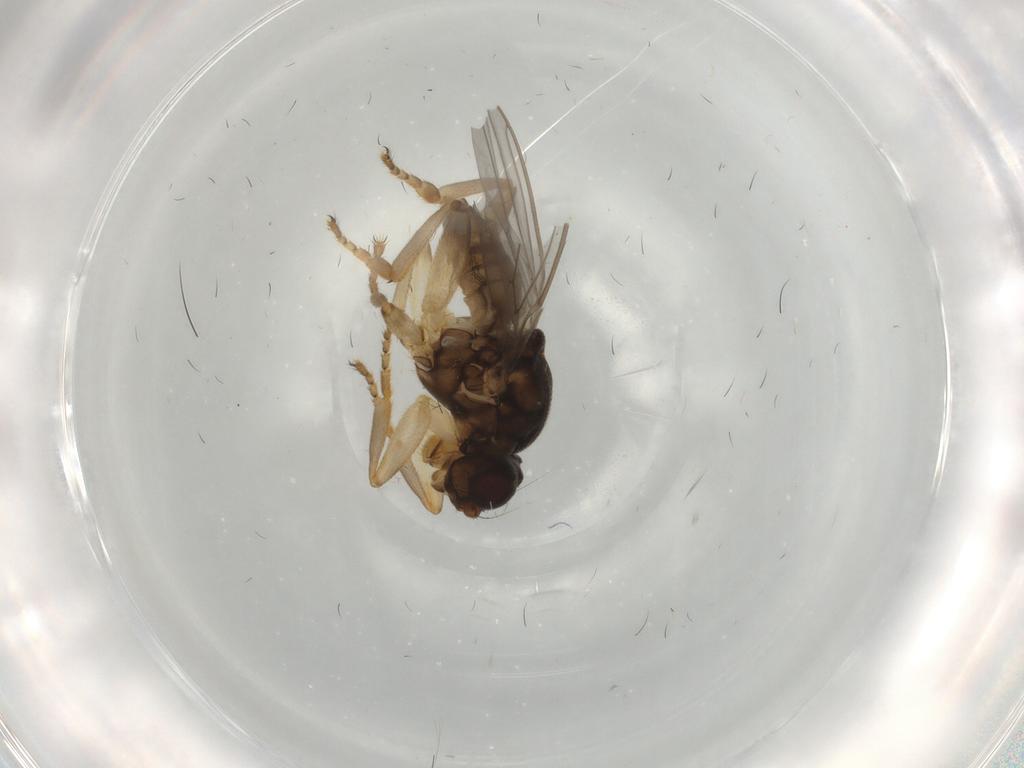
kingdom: Animalia
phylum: Arthropoda
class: Insecta
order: Diptera
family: Sphaeroceridae
